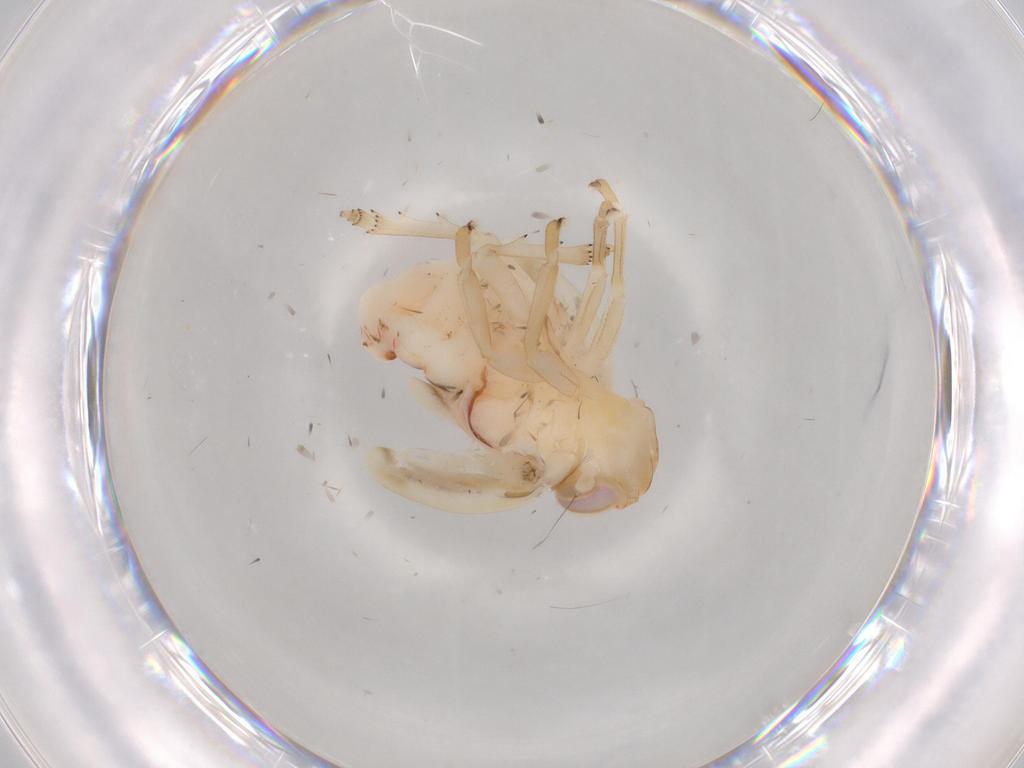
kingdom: Animalia
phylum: Arthropoda
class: Insecta
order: Hemiptera
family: Nogodinidae
